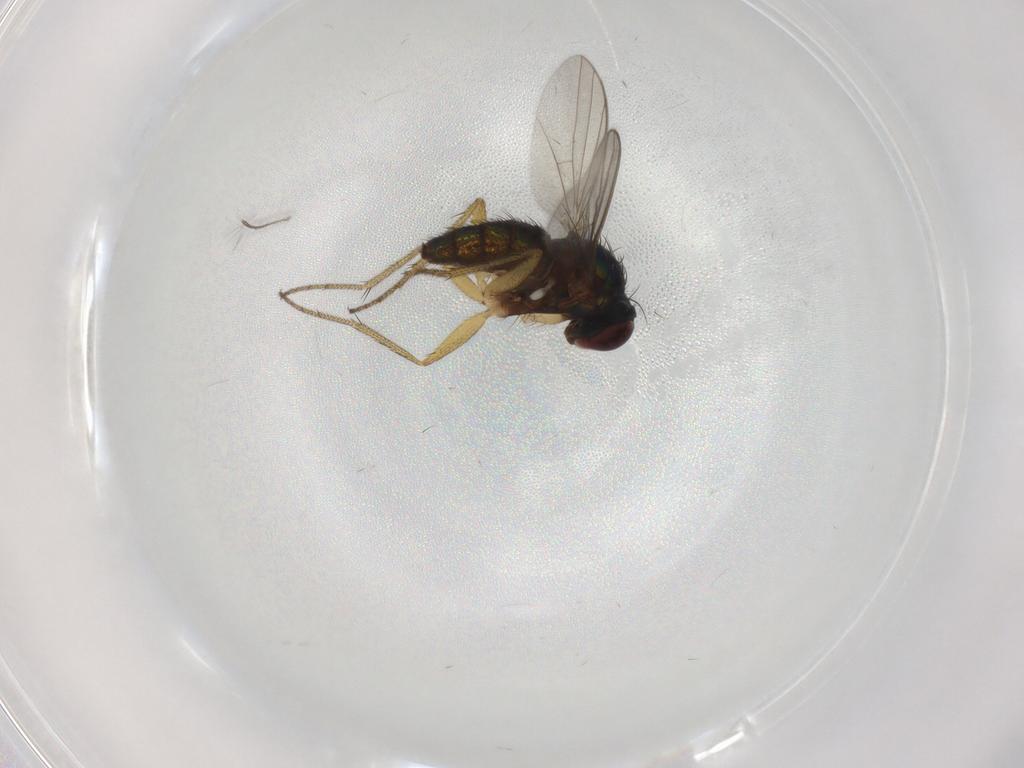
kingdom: Animalia
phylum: Arthropoda
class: Insecta
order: Diptera
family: Dolichopodidae
